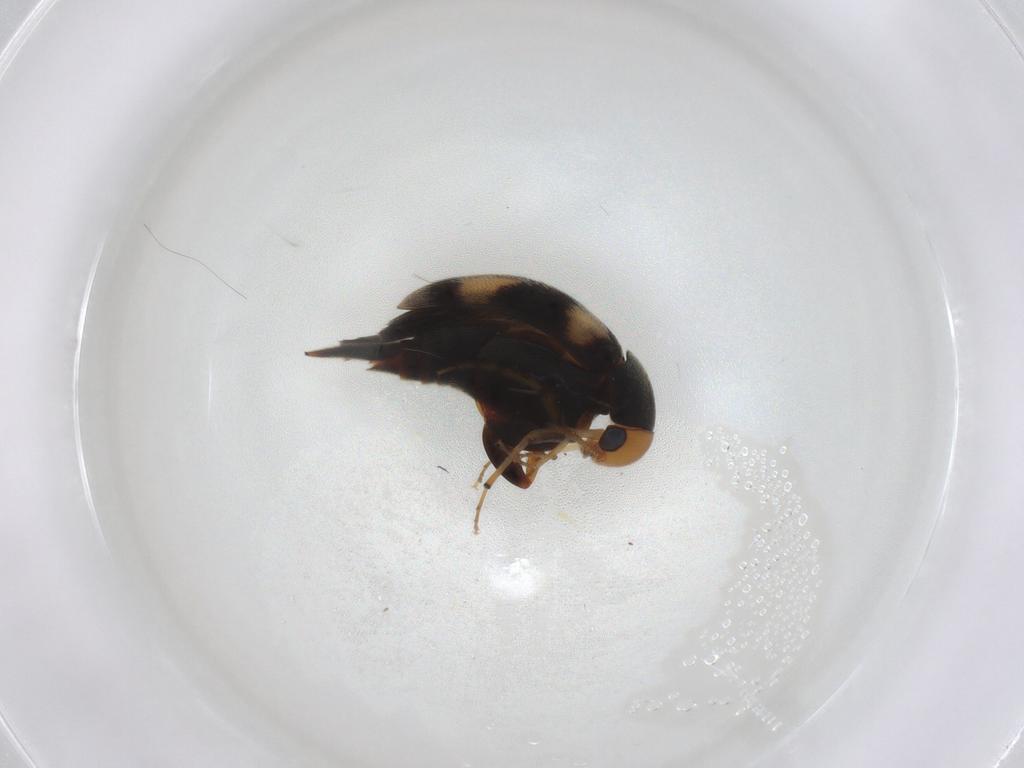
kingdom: Animalia
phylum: Arthropoda
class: Insecta
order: Coleoptera
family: Mordellidae
